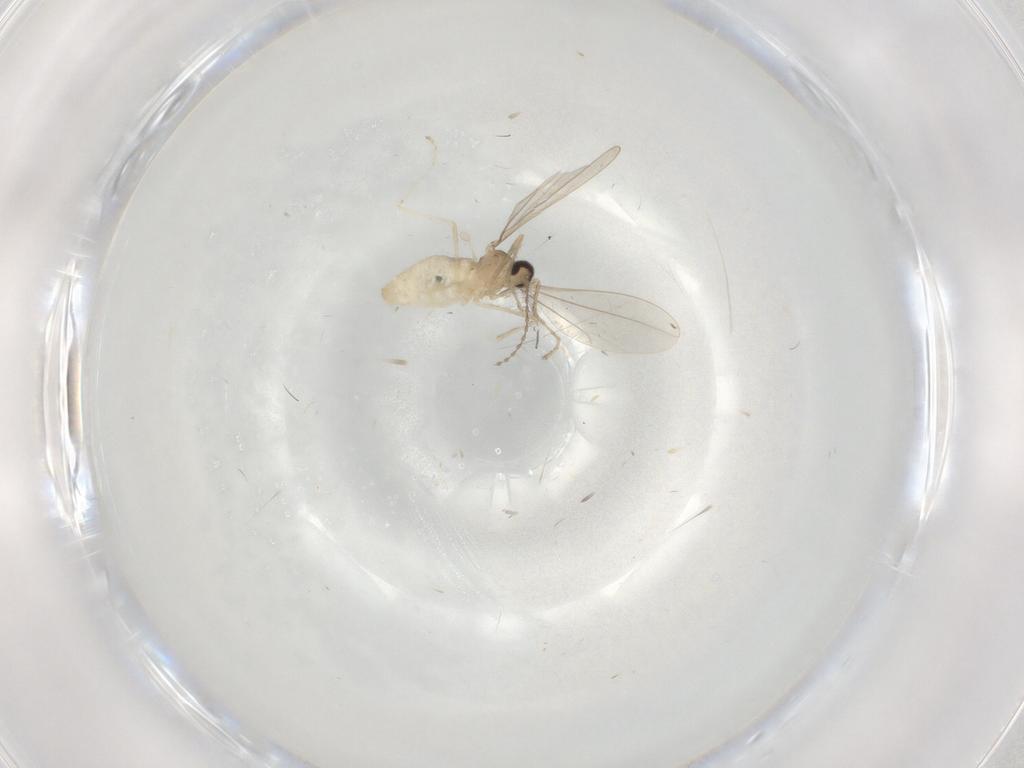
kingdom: Animalia
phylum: Arthropoda
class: Insecta
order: Diptera
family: Cecidomyiidae
